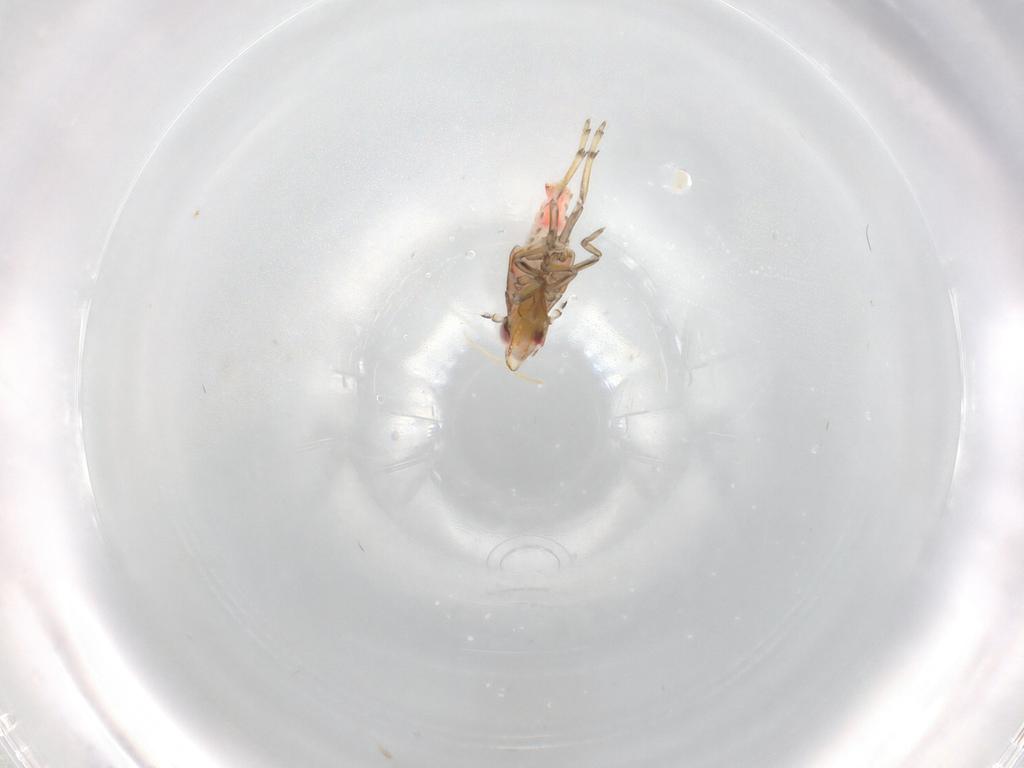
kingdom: Animalia
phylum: Arthropoda
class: Insecta
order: Hemiptera
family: Fulgoroidea_incertae_sedis
